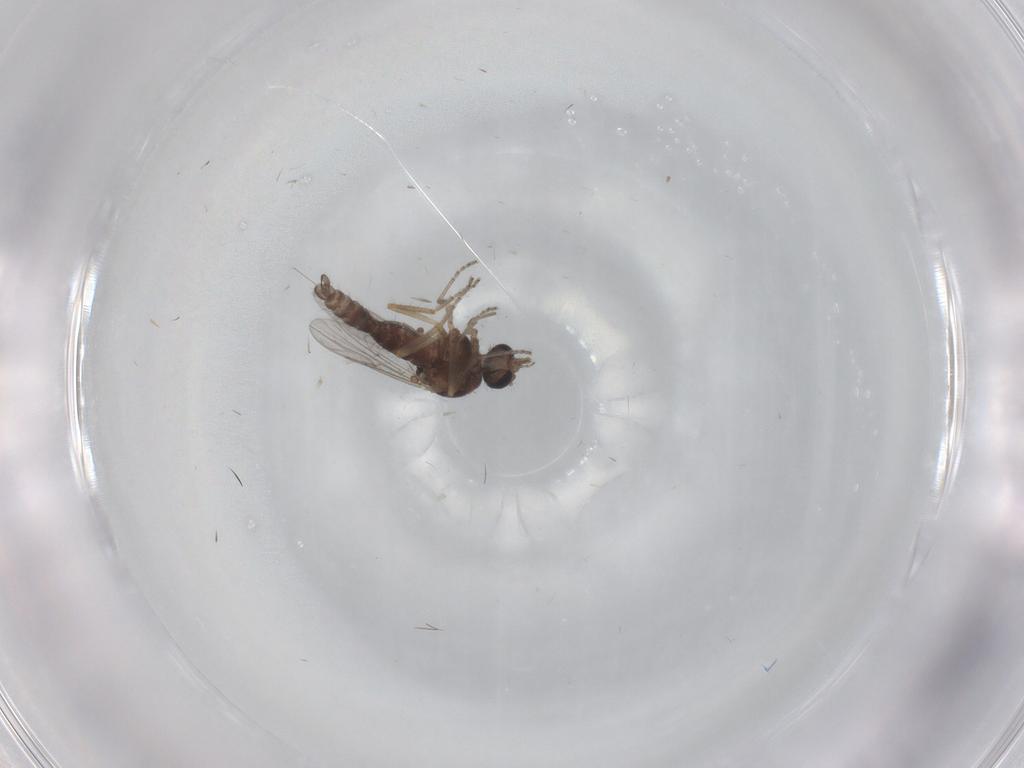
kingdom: Animalia
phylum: Arthropoda
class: Insecta
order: Diptera
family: Ceratopogonidae
